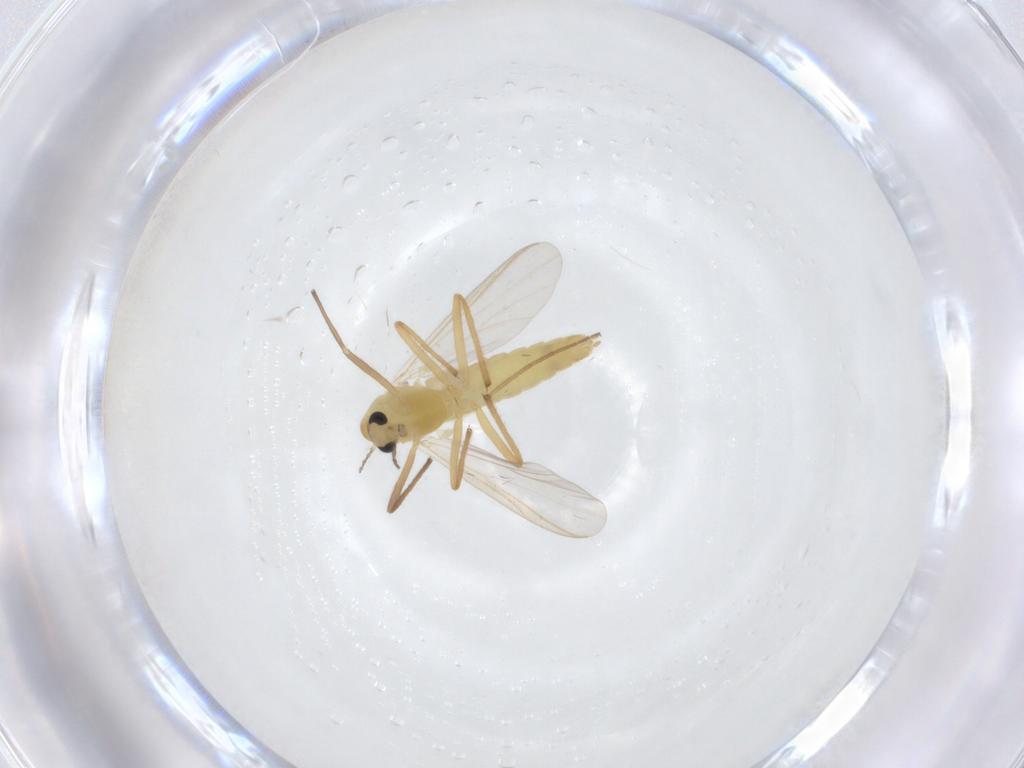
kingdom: Animalia
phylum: Arthropoda
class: Insecta
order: Diptera
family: Chironomidae
